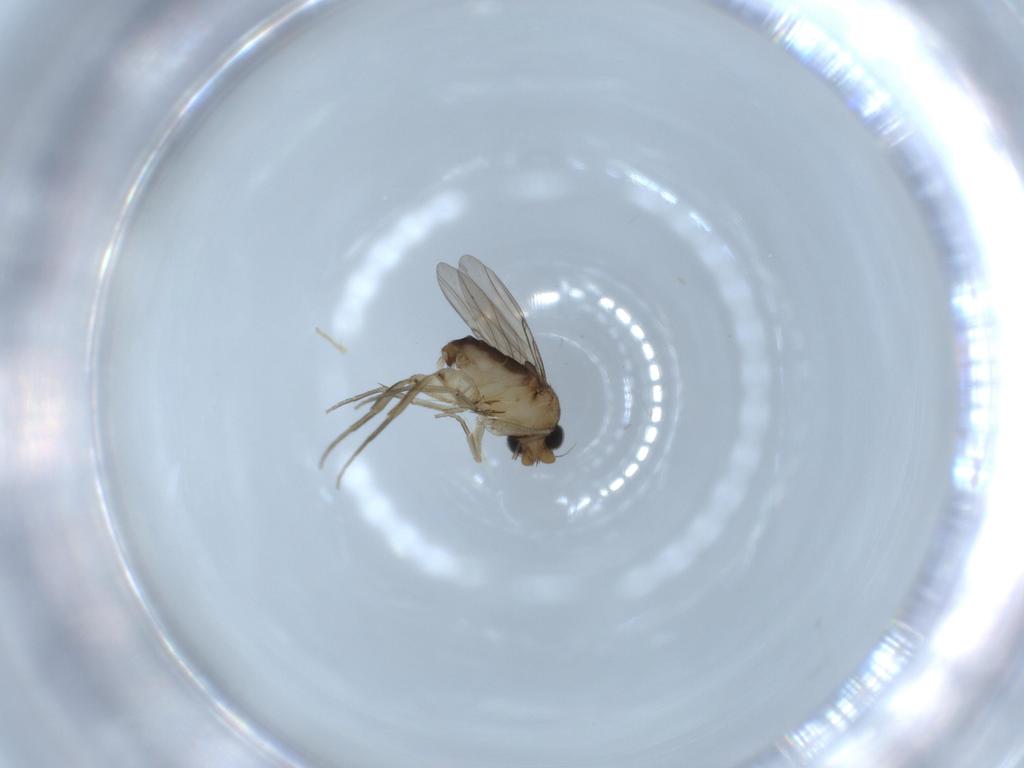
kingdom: Animalia
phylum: Arthropoda
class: Insecta
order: Diptera
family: Phoridae
